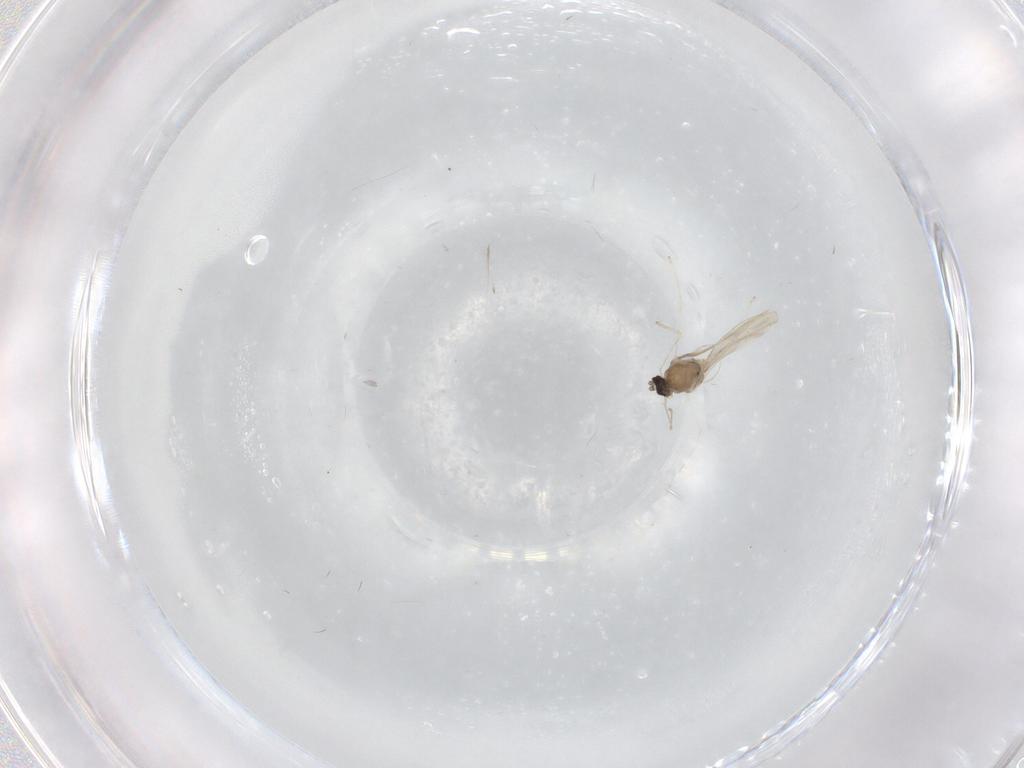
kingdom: Animalia
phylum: Arthropoda
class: Insecta
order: Diptera
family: Cecidomyiidae
